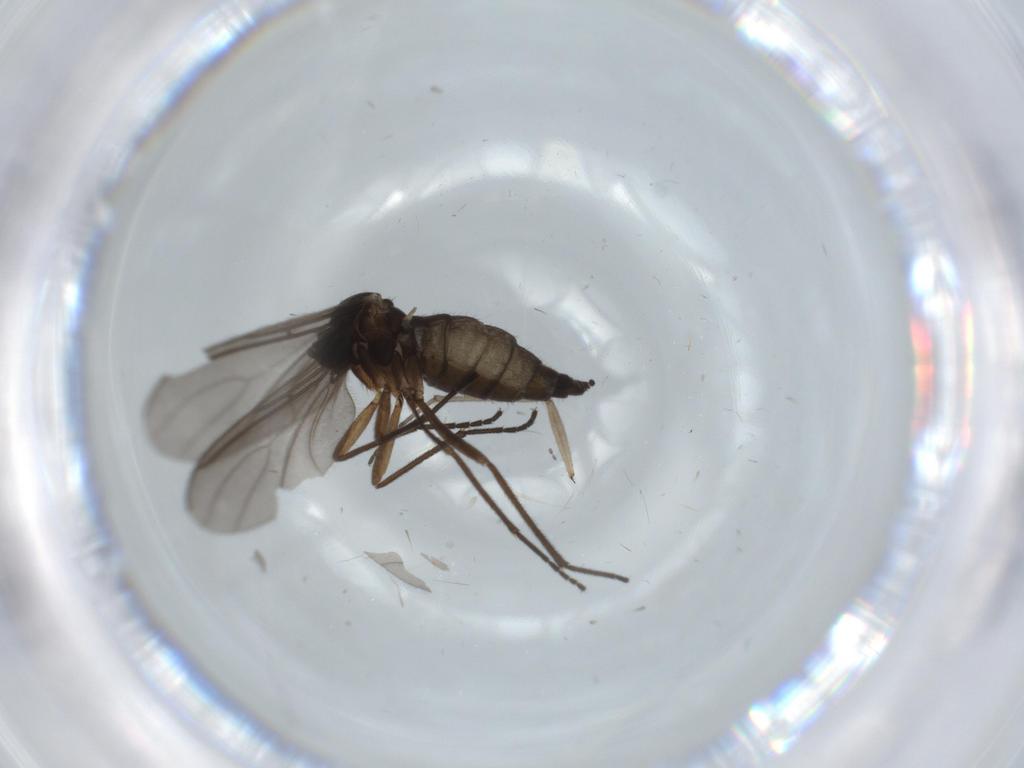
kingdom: Animalia
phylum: Arthropoda
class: Insecta
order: Diptera
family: Sciaridae
